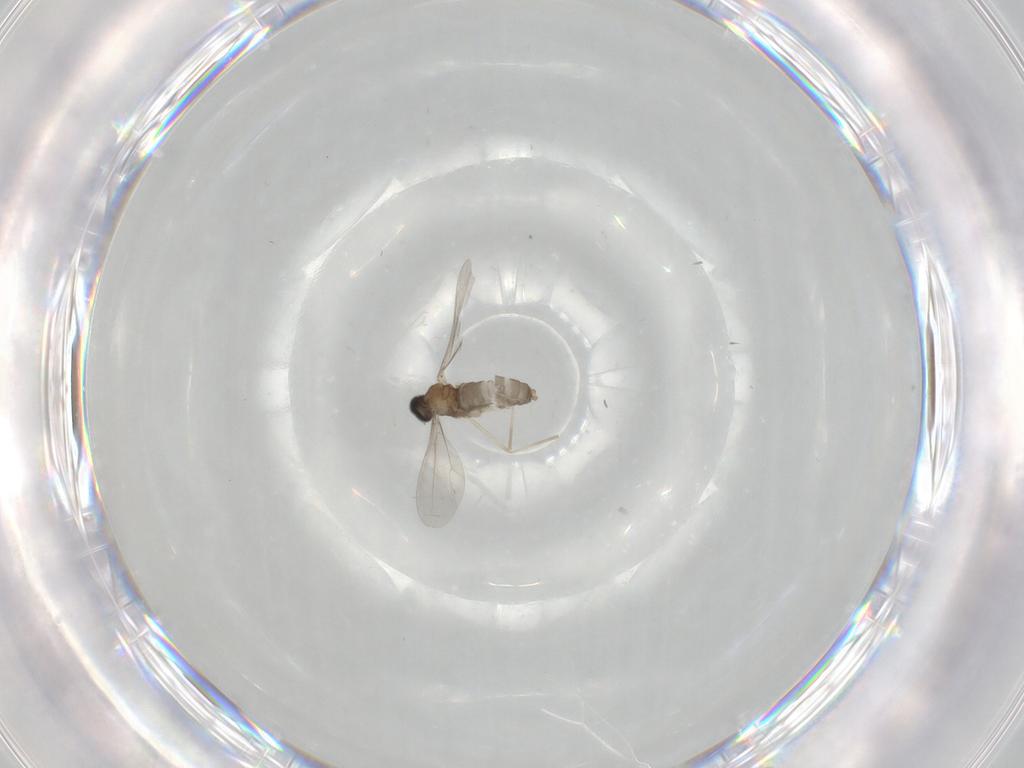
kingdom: Animalia
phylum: Arthropoda
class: Insecta
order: Diptera
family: Cecidomyiidae
